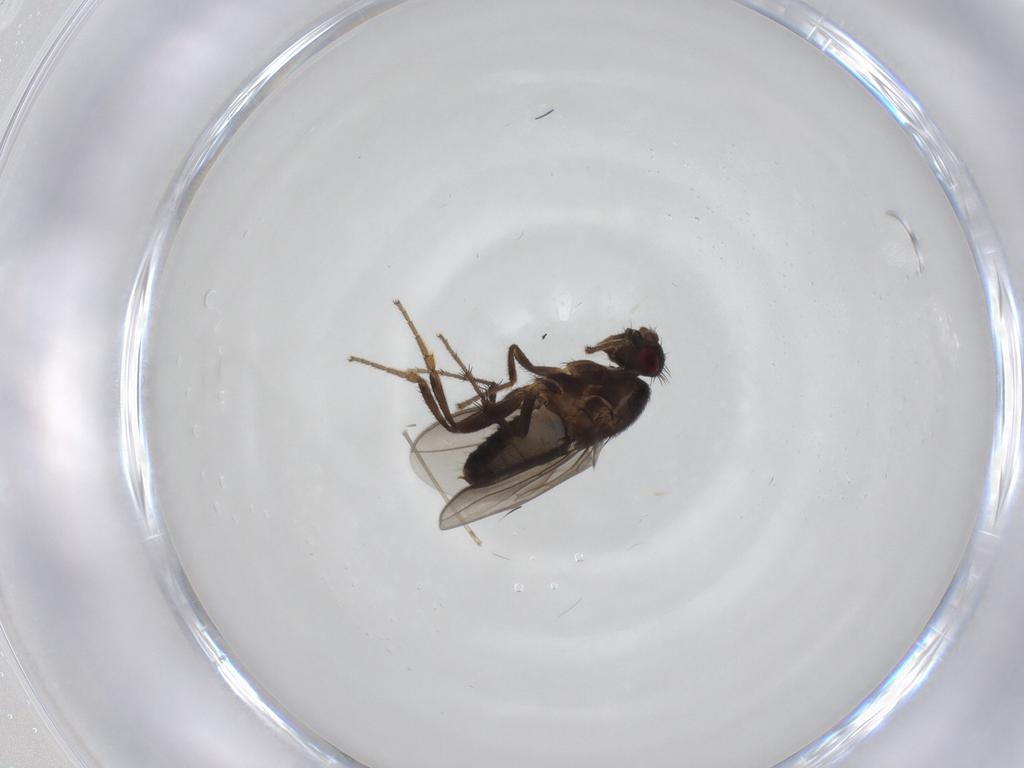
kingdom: Animalia
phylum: Arthropoda
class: Insecta
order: Diptera
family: Sphaeroceridae
